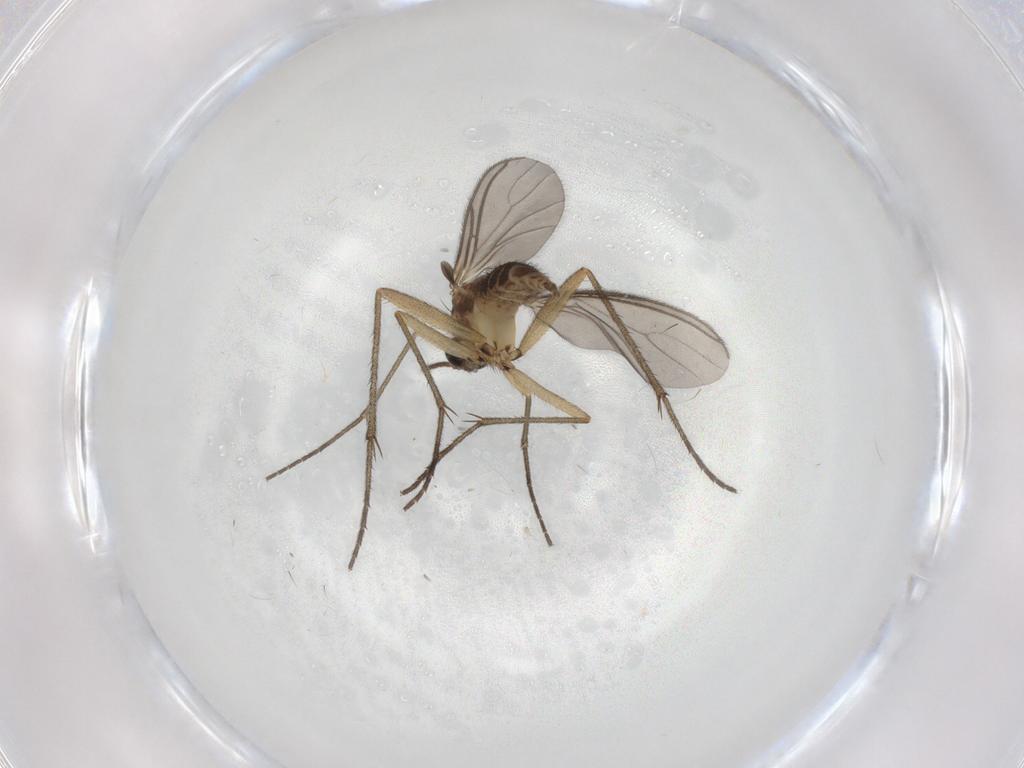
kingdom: Animalia
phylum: Arthropoda
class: Insecta
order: Diptera
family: Sciaridae
